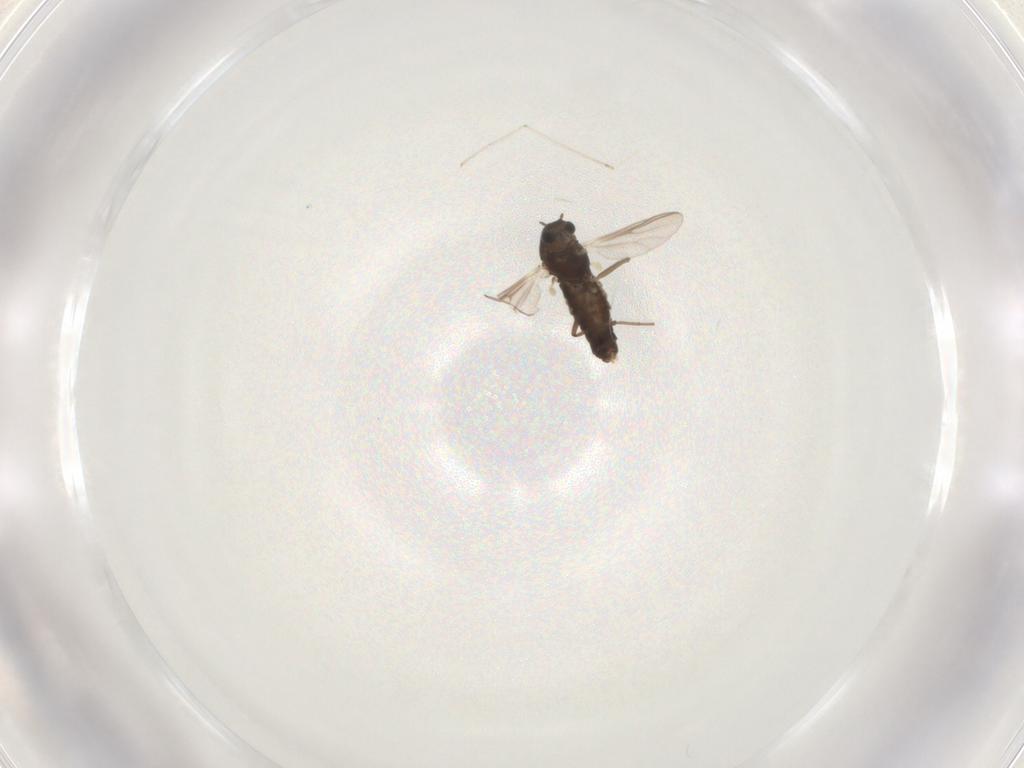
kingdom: Animalia
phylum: Arthropoda
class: Insecta
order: Diptera
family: Chironomidae
